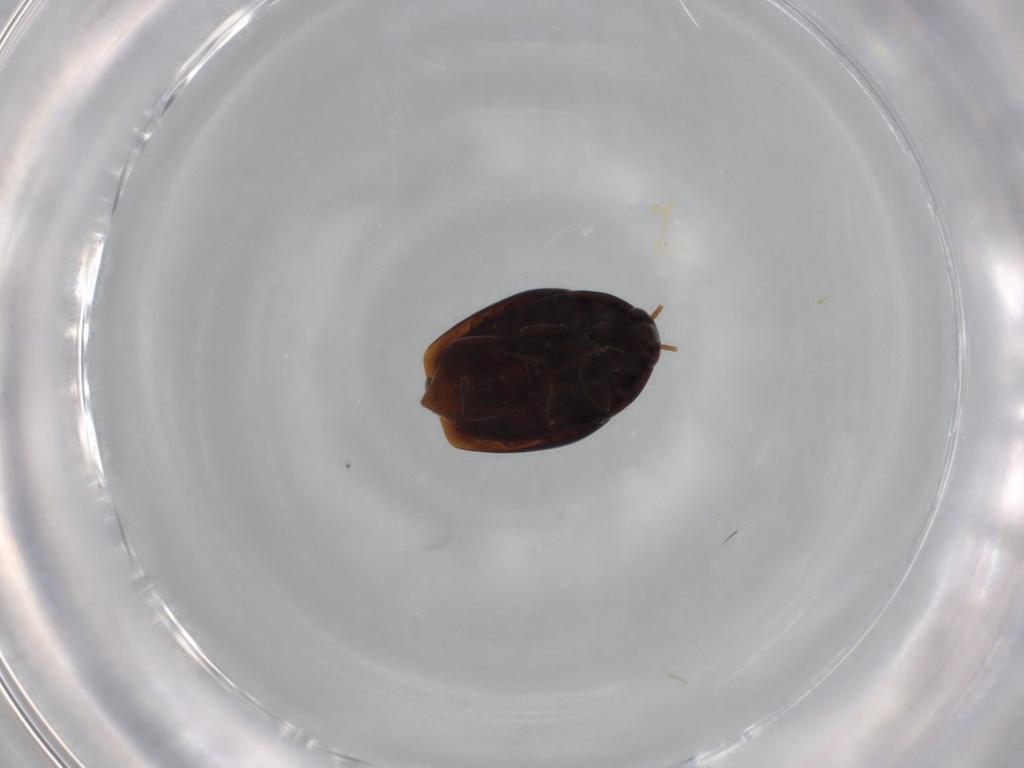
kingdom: Animalia
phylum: Arthropoda
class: Insecta
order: Coleoptera
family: Staphylinidae
